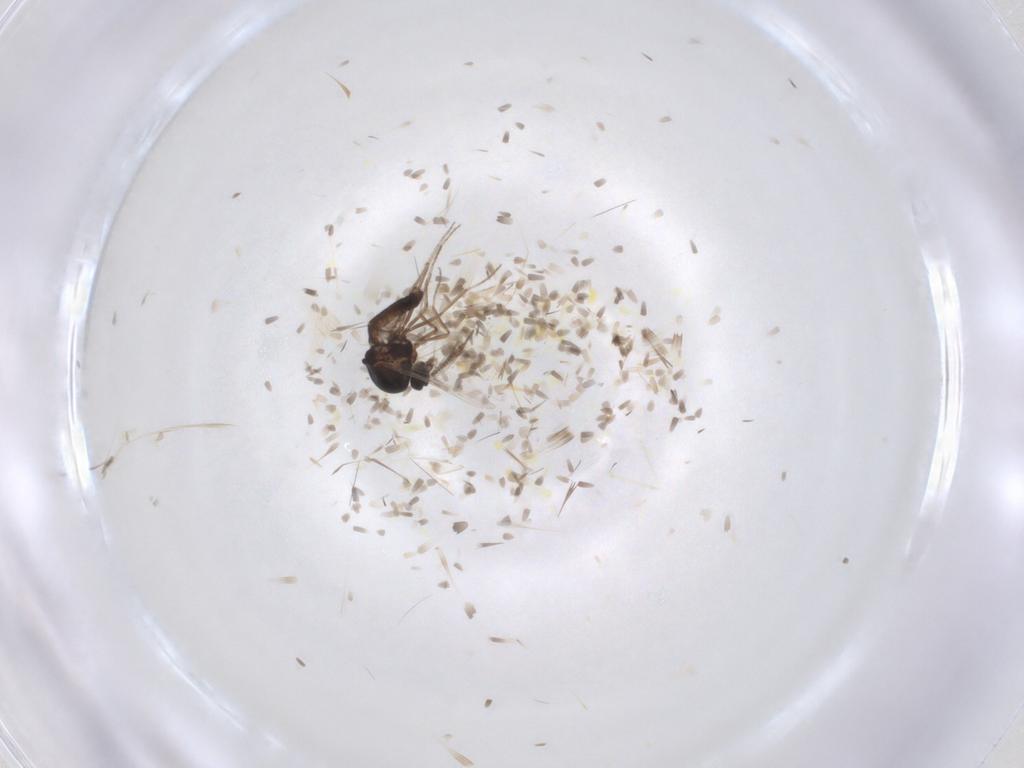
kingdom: Animalia
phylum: Arthropoda
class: Insecta
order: Diptera
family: Ceratopogonidae
